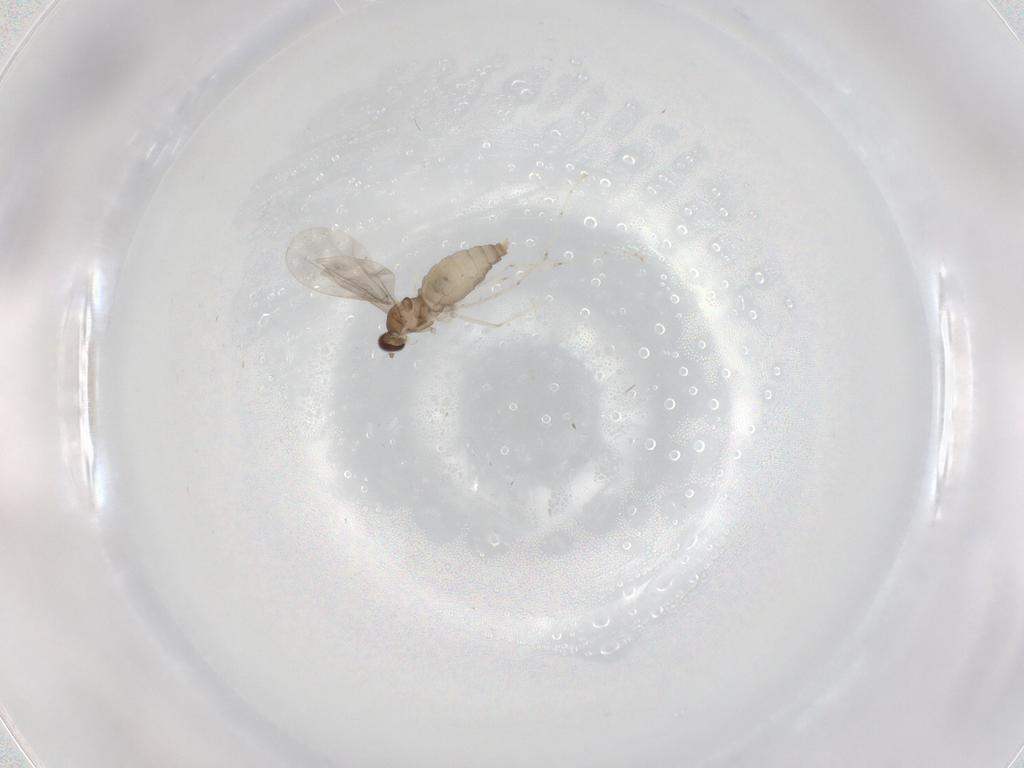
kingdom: Animalia
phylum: Arthropoda
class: Insecta
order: Diptera
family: Cecidomyiidae
